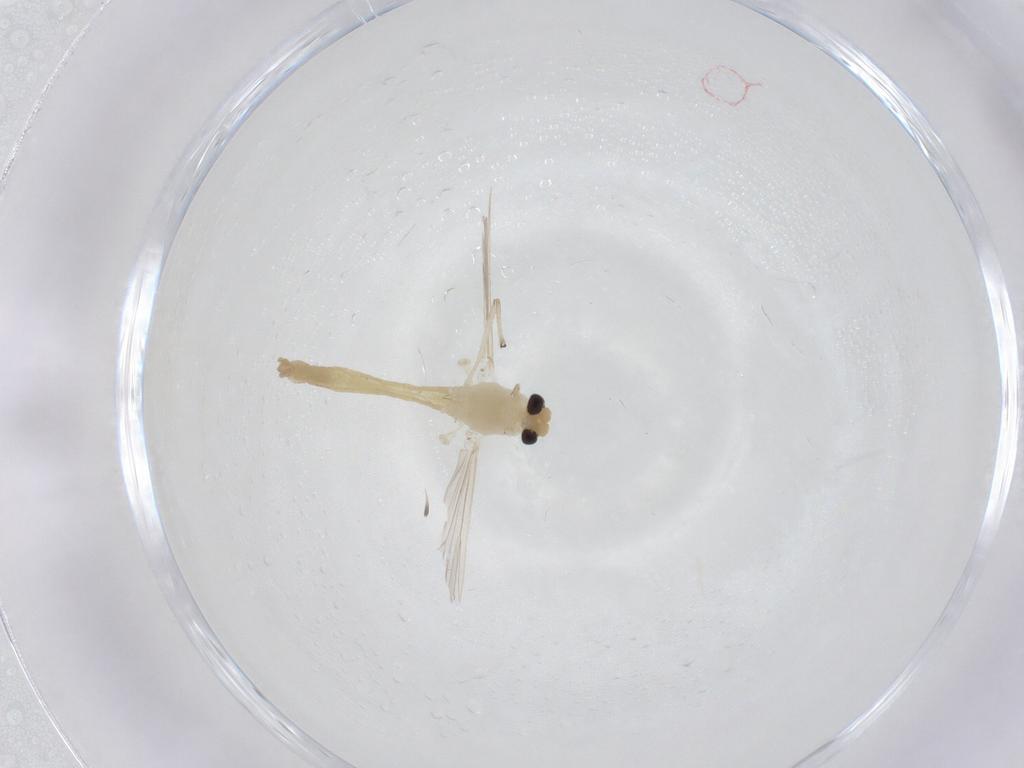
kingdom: Animalia
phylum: Arthropoda
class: Insecta
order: Diptera
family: Chironomidae
